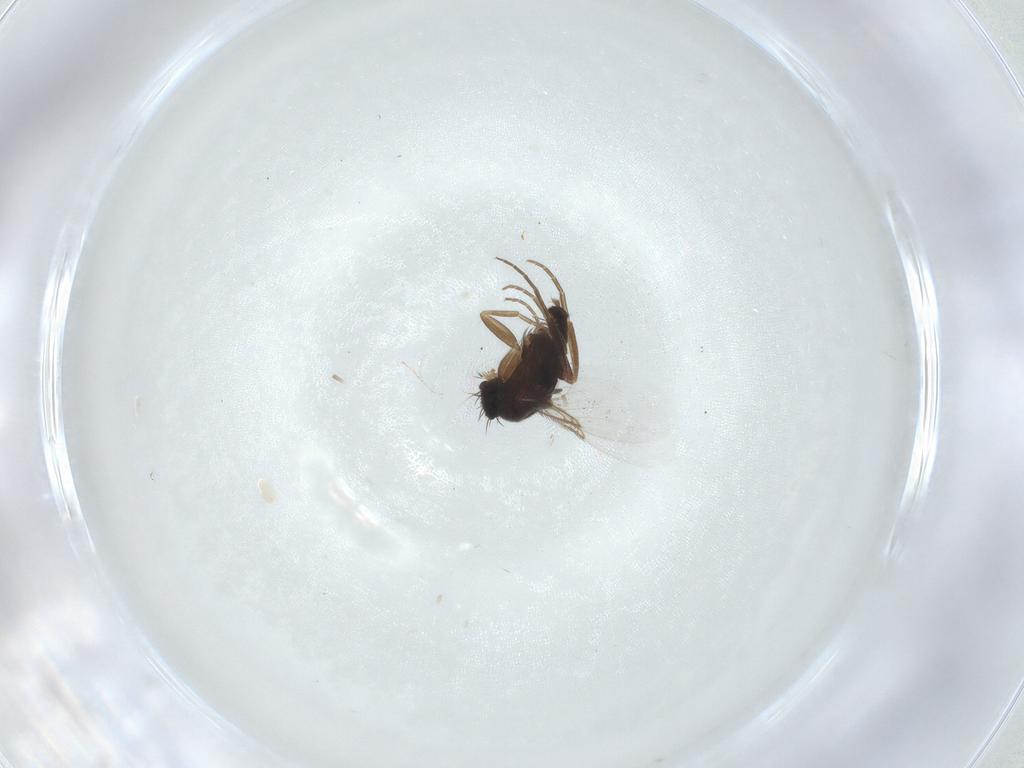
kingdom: Animalia
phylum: Arthropoda
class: Insecta
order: Diptera
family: Phoridae
